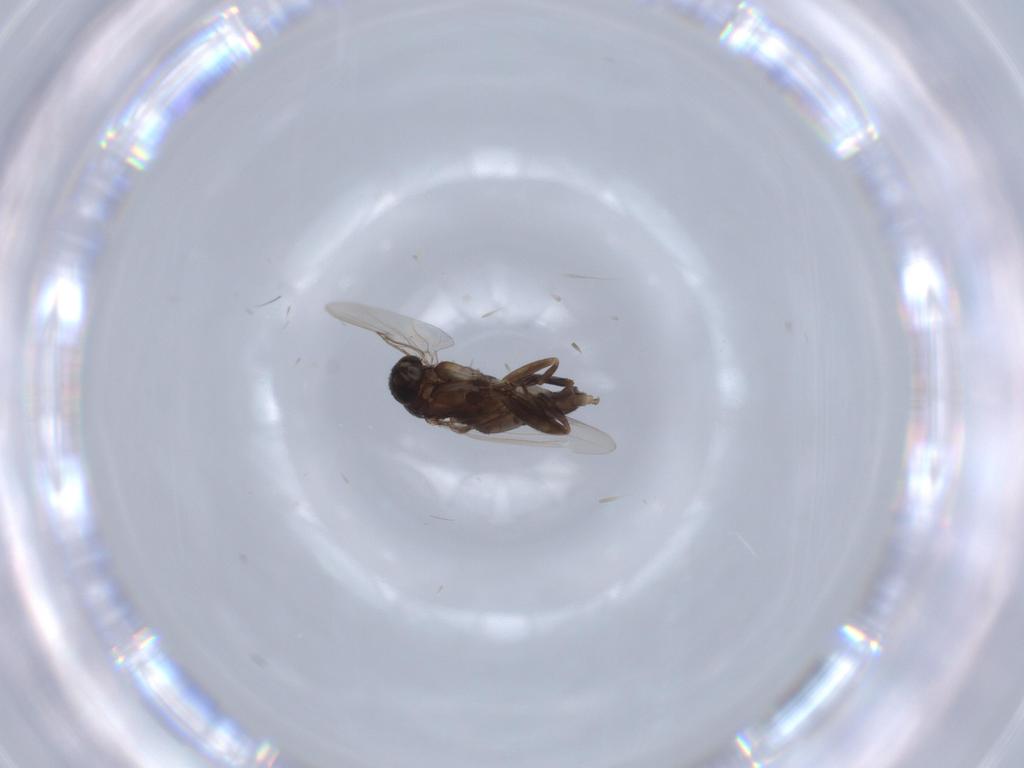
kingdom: Animalia
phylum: Arthropoda
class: Insecta
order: Diptera
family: Phoridae
